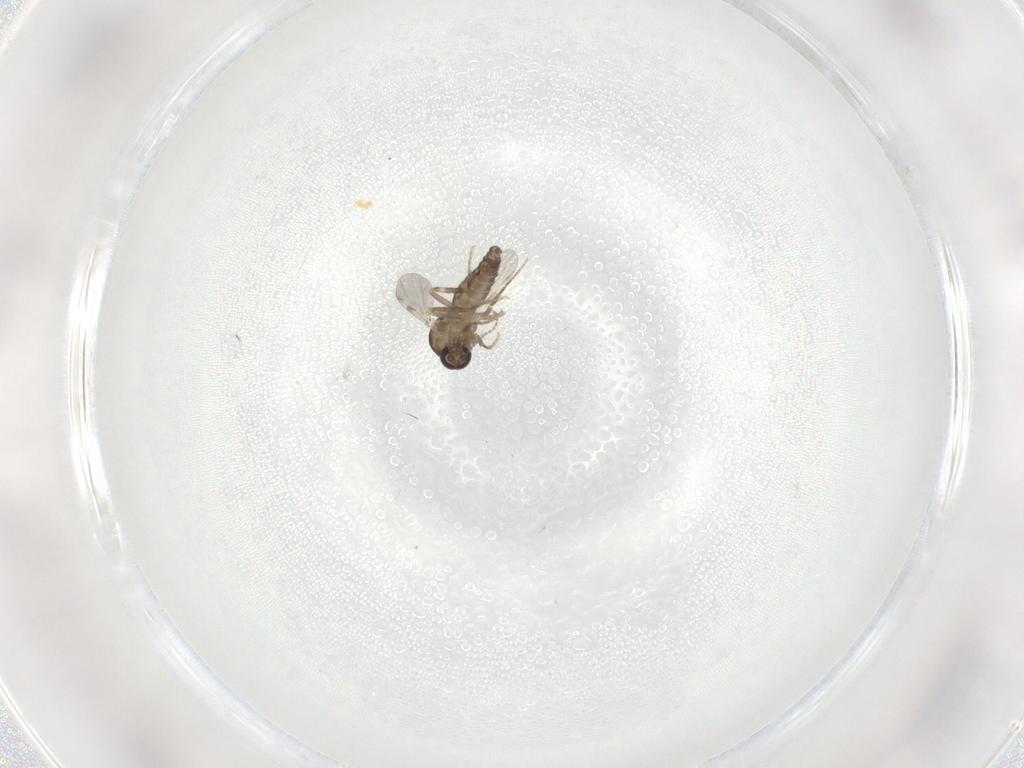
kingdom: Animalia
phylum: Arthropoda
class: Insecta
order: Diptera
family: Ceratopogonidae
